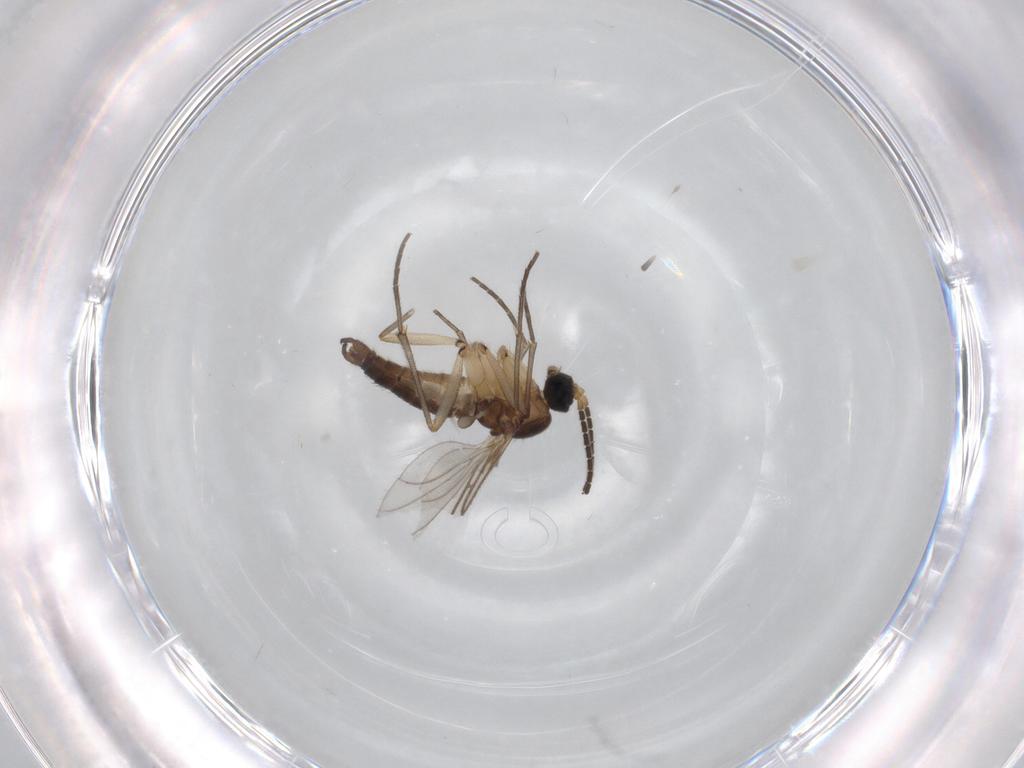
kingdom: Animalia
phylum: Arthropoda
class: Insecta
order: Diptera
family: Sciaridae
